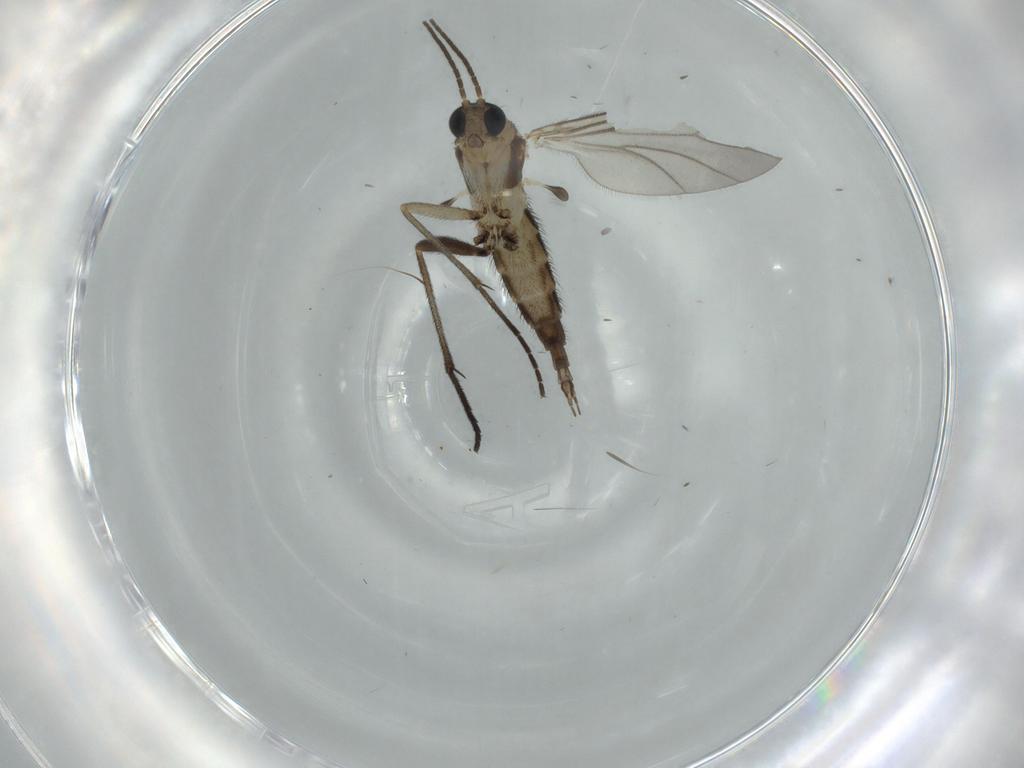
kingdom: Animalia
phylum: Arthropoda
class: Insecta
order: Diptera
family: Sciaridae
